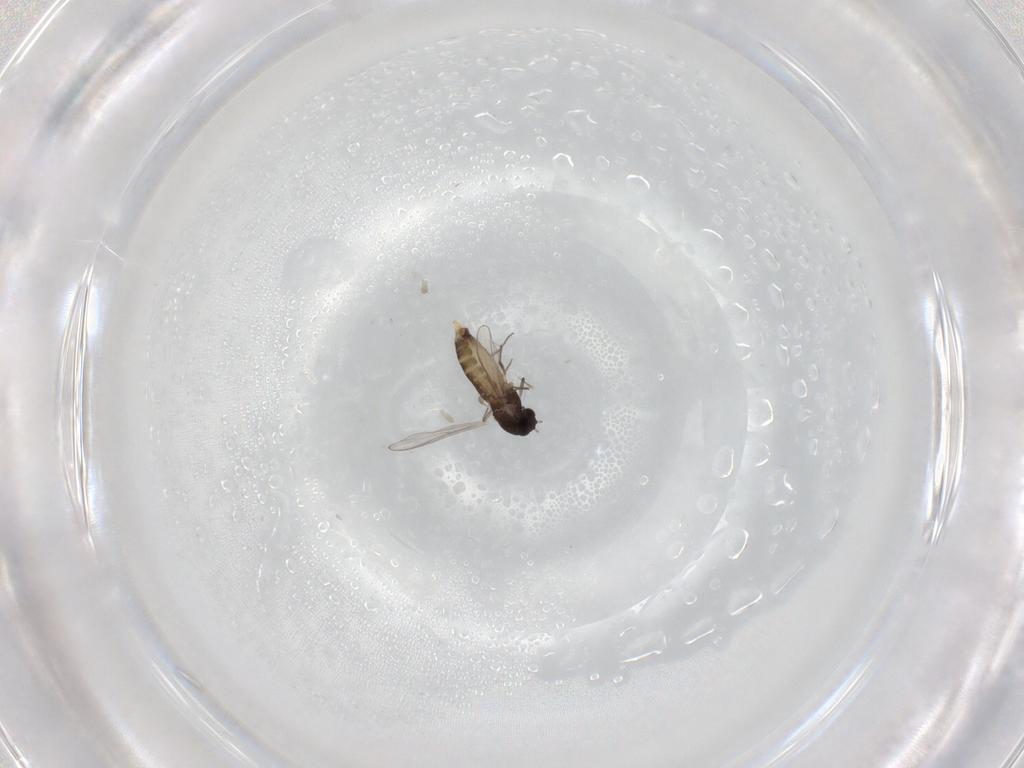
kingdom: Animalia
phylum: Arthropoda
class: Insecta
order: Diptera
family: Chironomidae
